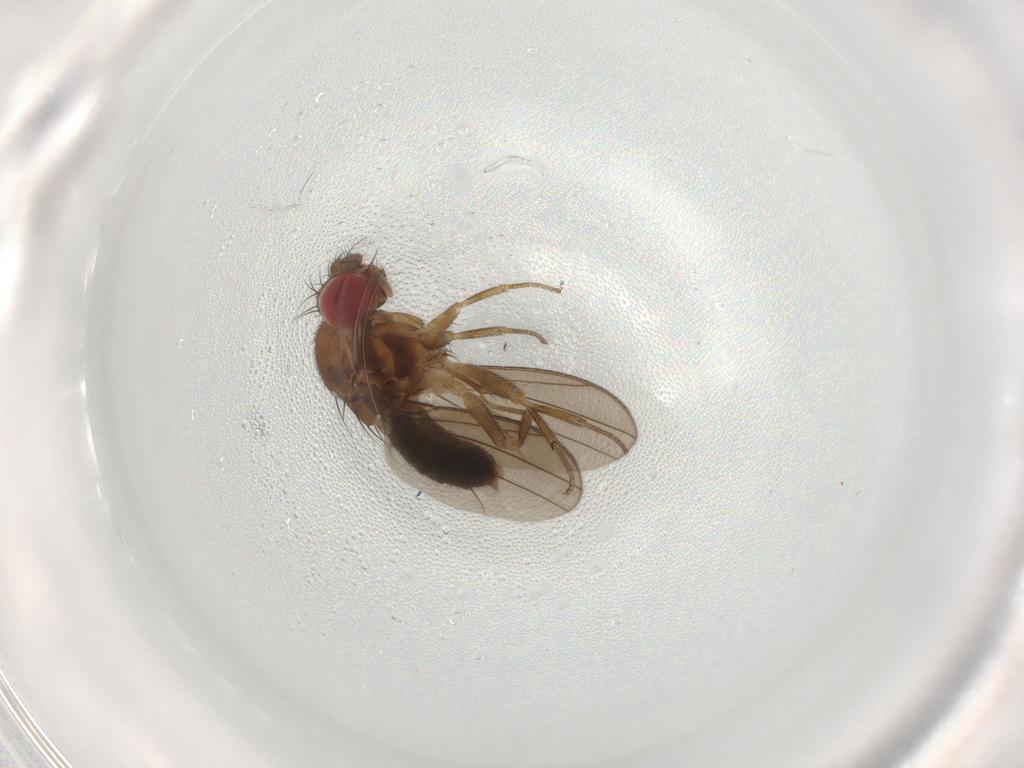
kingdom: Animalia
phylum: Arthropoda
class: Insecta
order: Diptera
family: Drosophilidae
